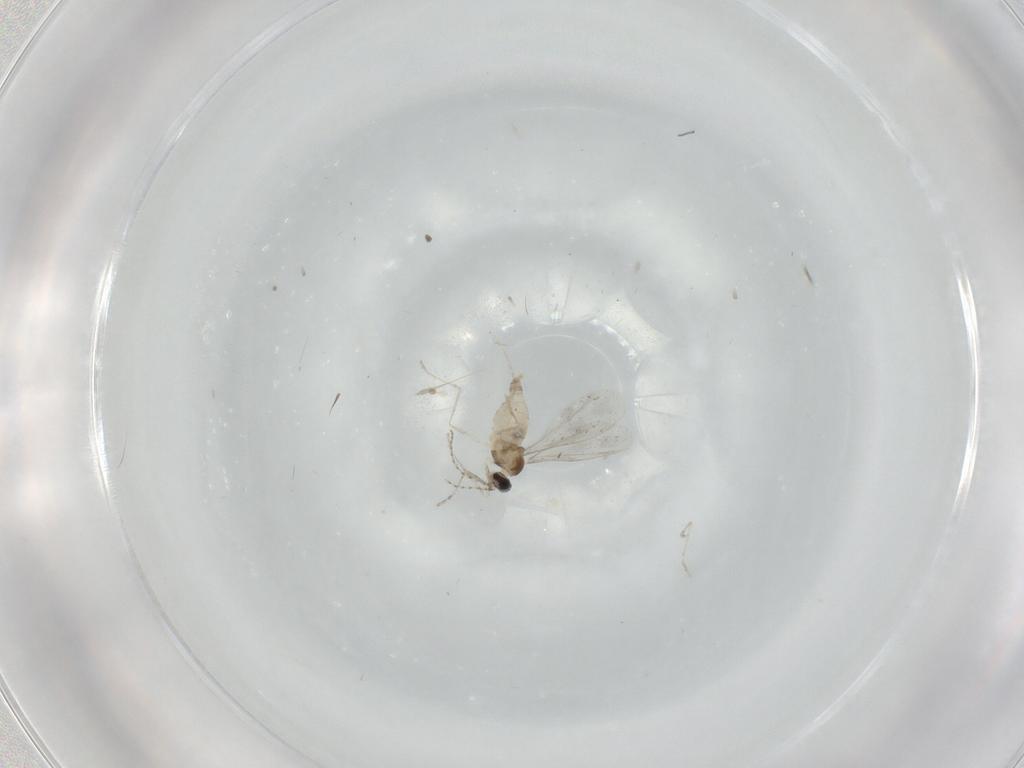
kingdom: Animalia
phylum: Arthropoda
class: Insecta
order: Diptera
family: Cecidomyiidae
